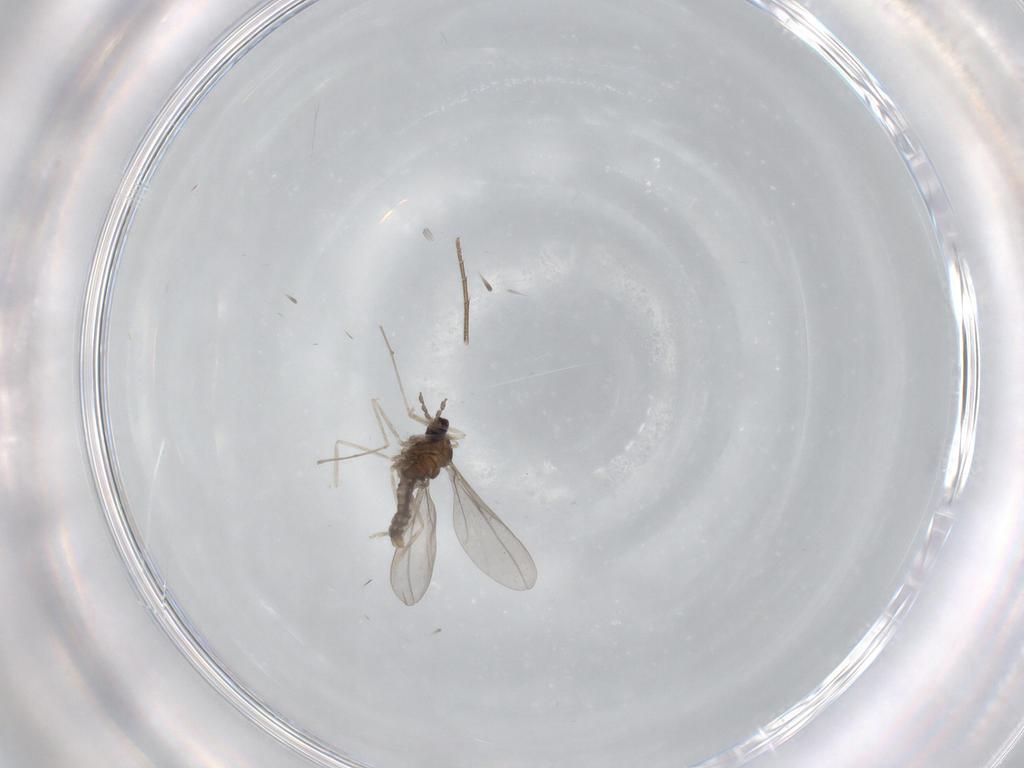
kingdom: Animalia
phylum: Arthropoda
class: Insecta
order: Diptera
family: Cecidomyiidae
